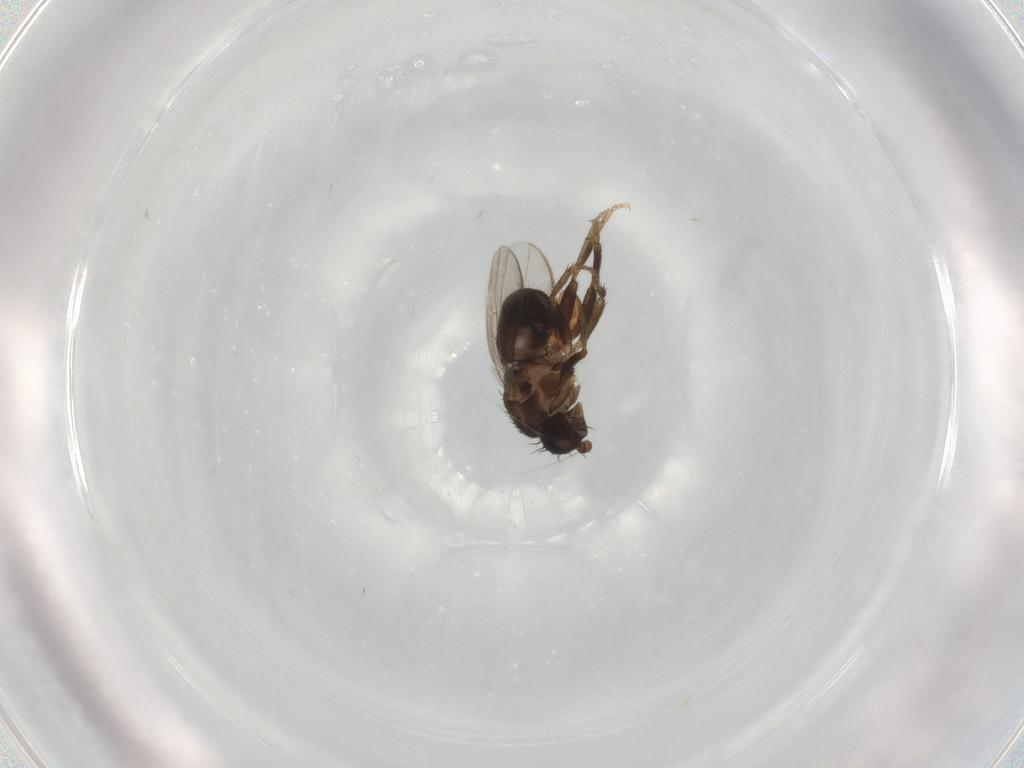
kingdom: Animalia
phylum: Arthropoda
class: Insecta
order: Diptera
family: Sphaeroceridae
